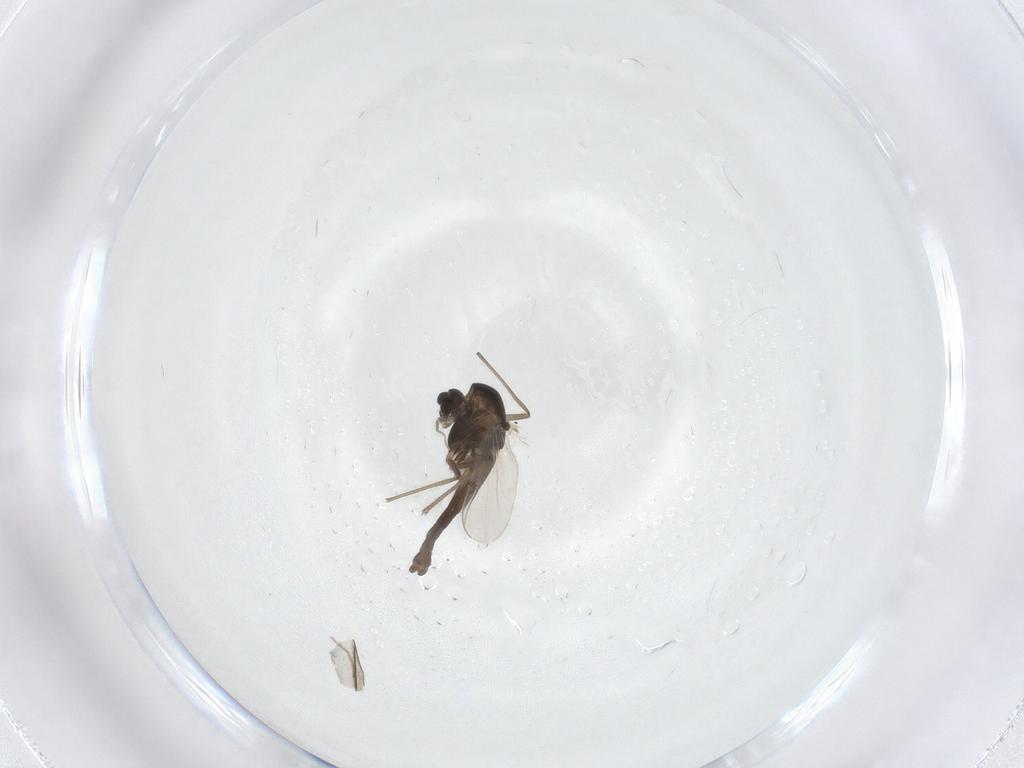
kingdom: Animalia
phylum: Arthropoda
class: Insecta
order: Diptera
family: Chironomidae
